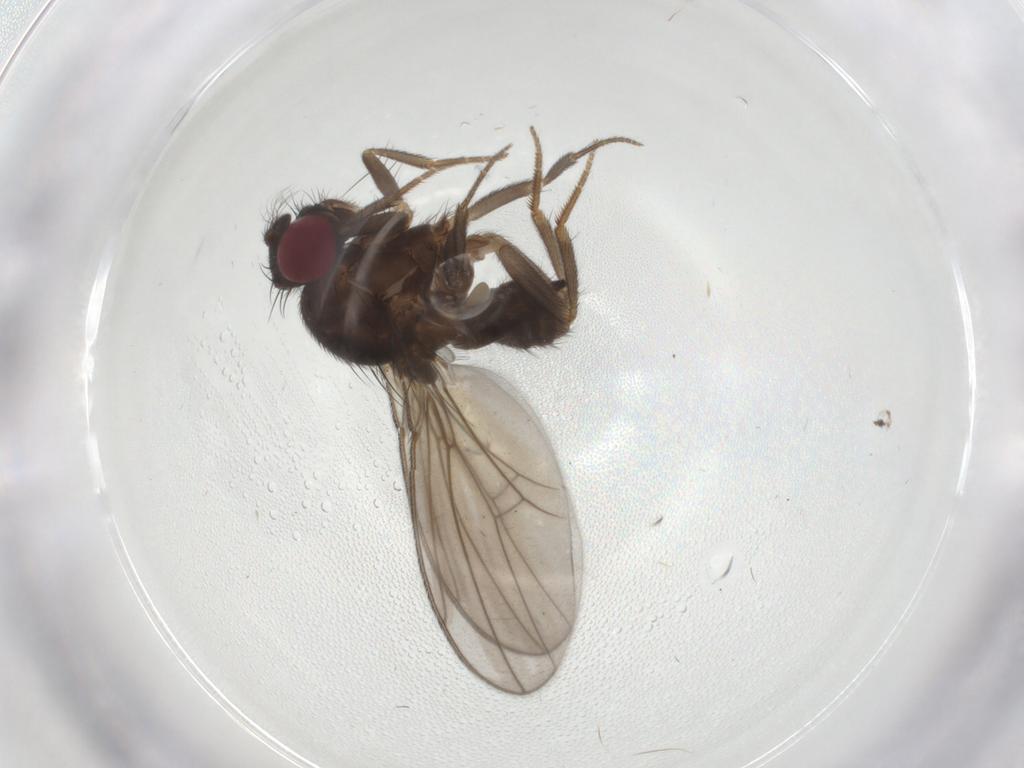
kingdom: Animalia
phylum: Arthropoda
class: Insecta
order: Diptera
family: Drosophilidae
